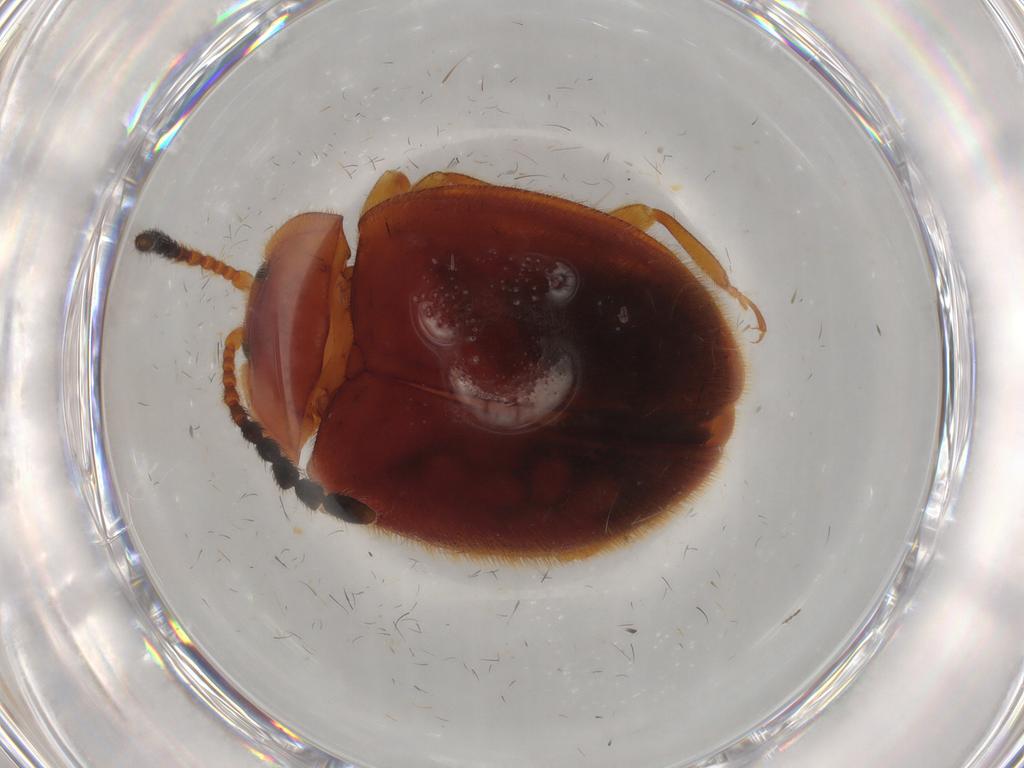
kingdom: Animalia
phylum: Arthropoda
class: Insecta
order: Coleoptera
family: Endomychidae
